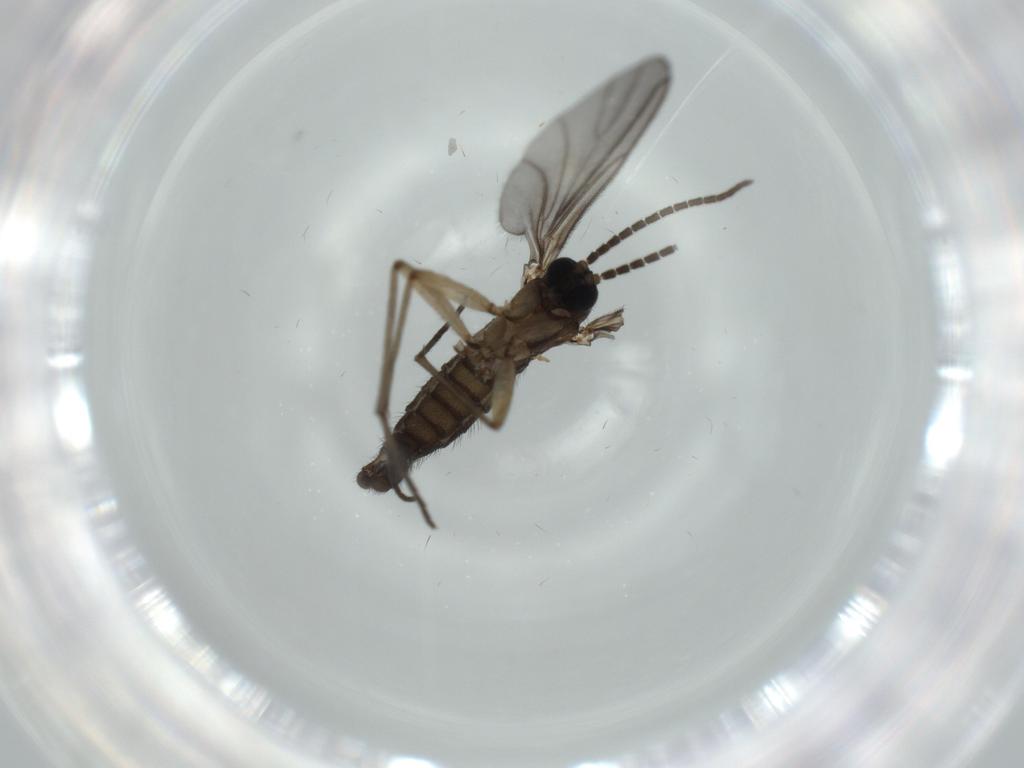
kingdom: Animalia
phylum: Arthropoda
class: Insecta
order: Diptera
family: Sciaridae
